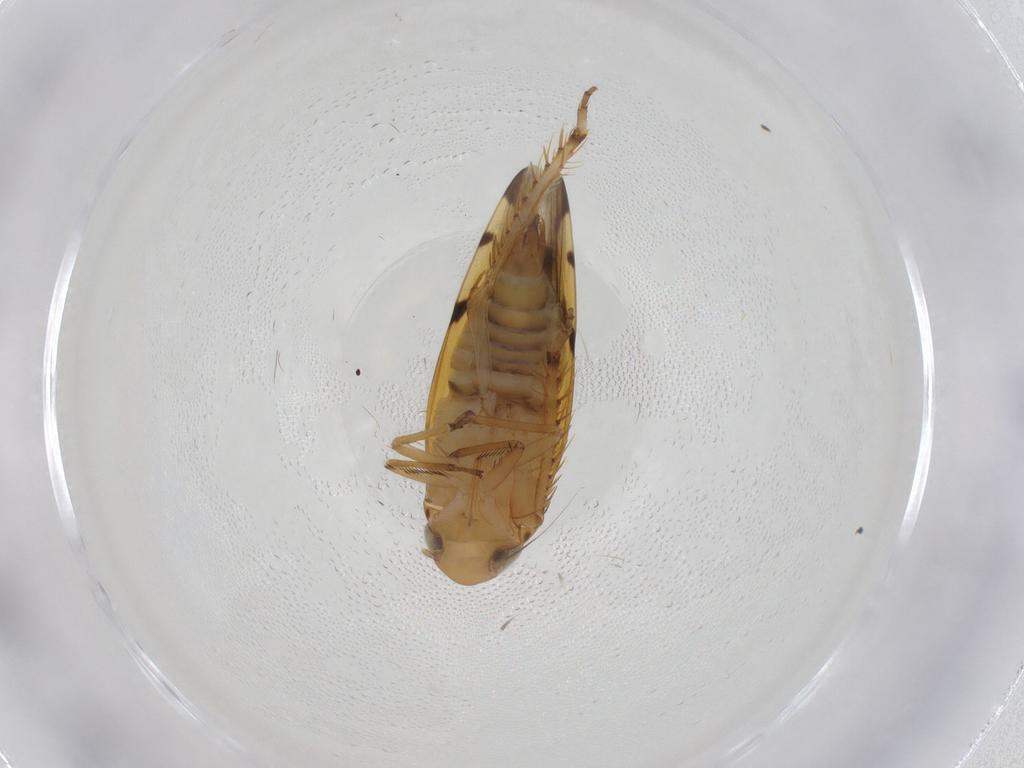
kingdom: Animalia
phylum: Arthropoda
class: Insecta
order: Hemiptera
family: Cicadellidae
